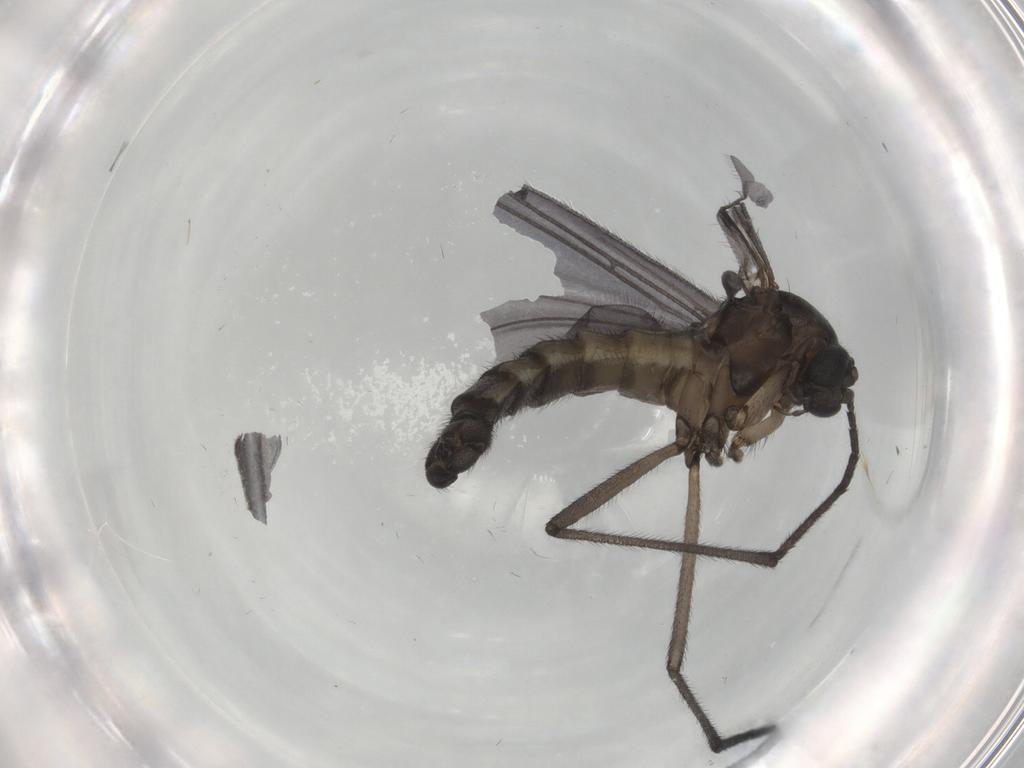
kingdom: Animalia
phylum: Arthropoda
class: Insecta
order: Diptera
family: Sciaridae
